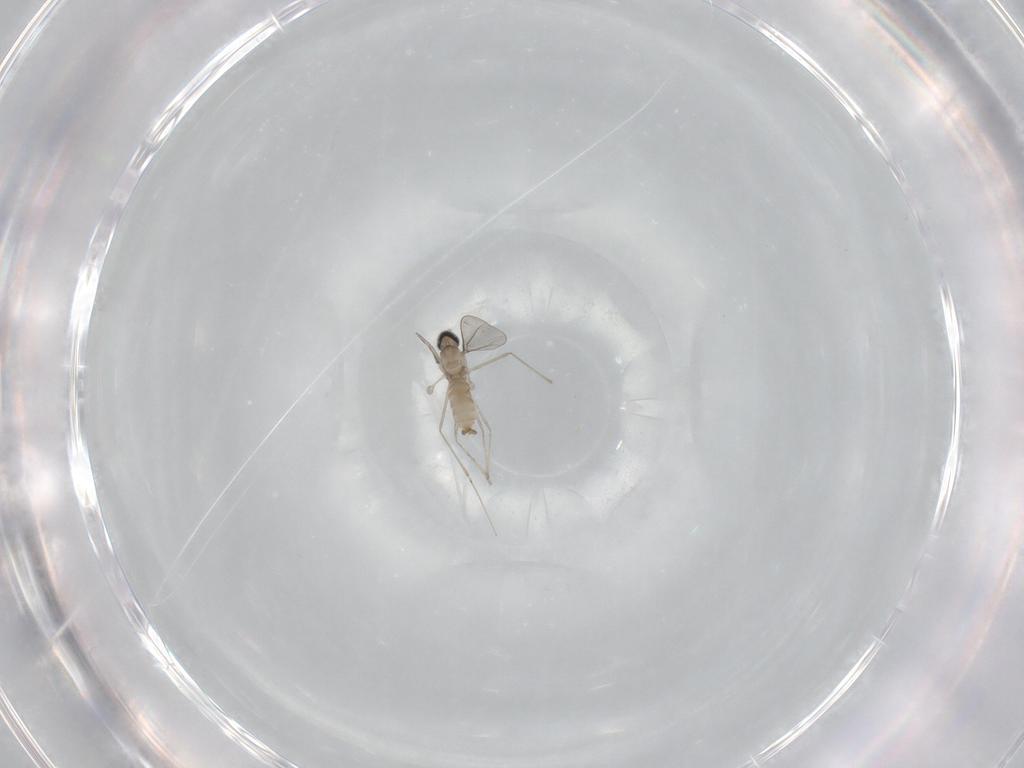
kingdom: Animalia
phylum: Arthropoda
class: Insecta
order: Diptera
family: Cecidomyiidae
